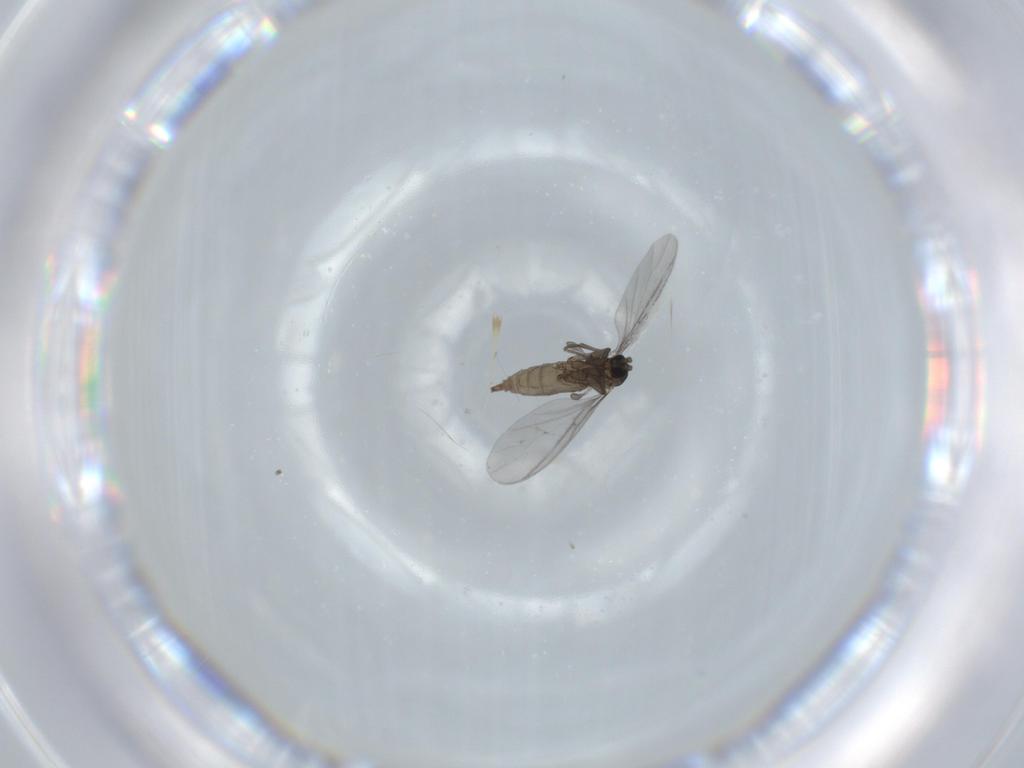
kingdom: Animalia
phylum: Arthropoda
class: Insecta
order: Diptera
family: Sciaridae
